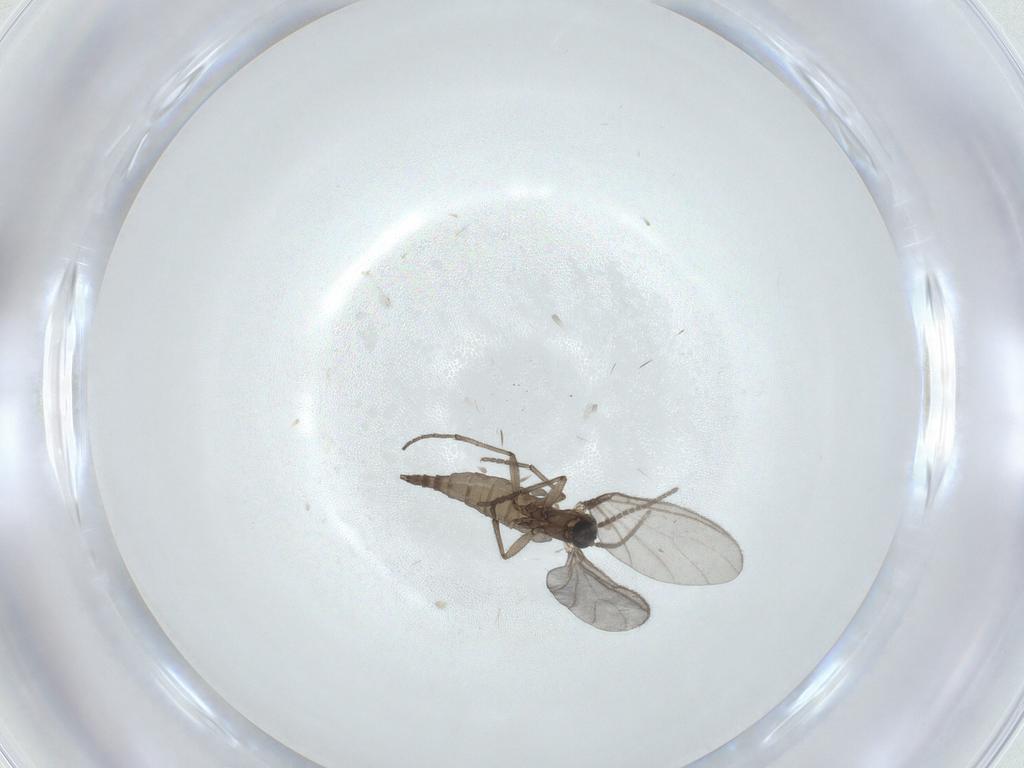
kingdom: Animalia
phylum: Arthropoda
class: Insecta
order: Diptera
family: Sciaridae
